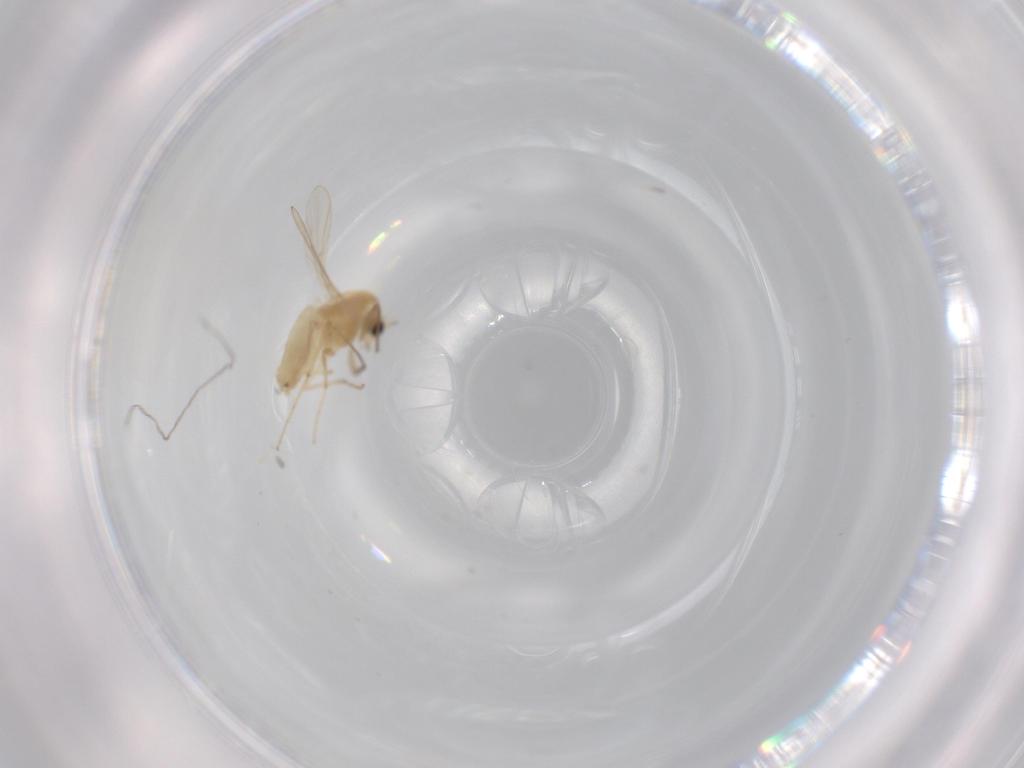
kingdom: Animalia
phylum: Arthropoda
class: Insecta
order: Diptera
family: Chironomidae
